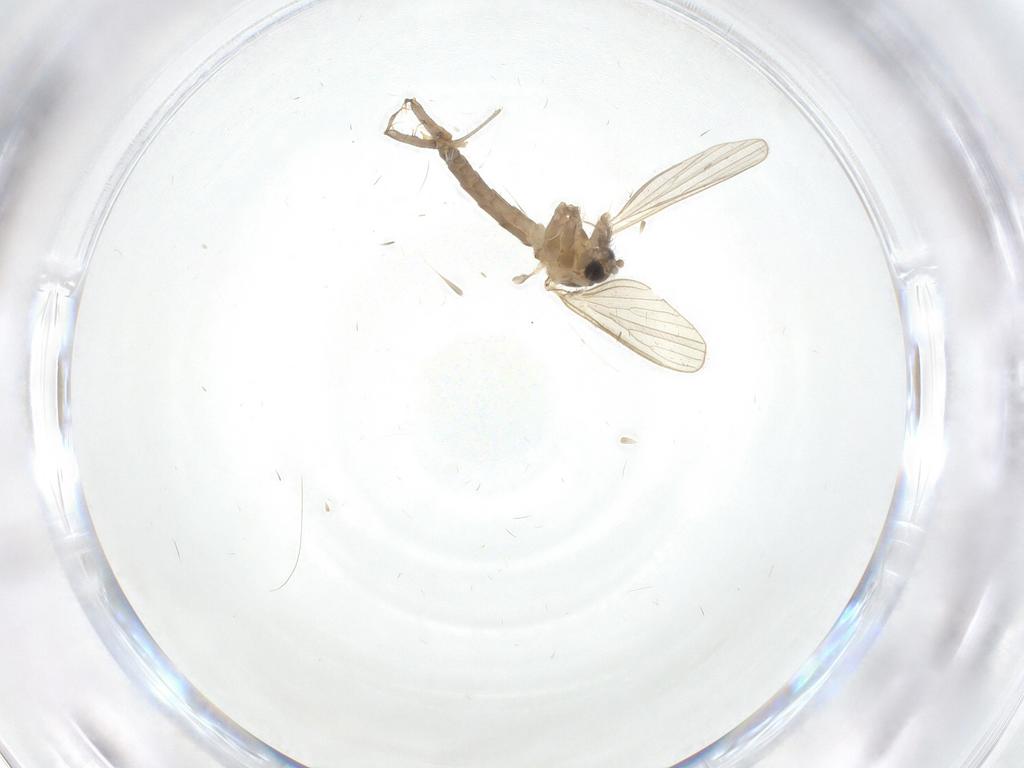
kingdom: Animalia
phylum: Arthropoda
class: Insecta
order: Diptera
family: Psychodidae
